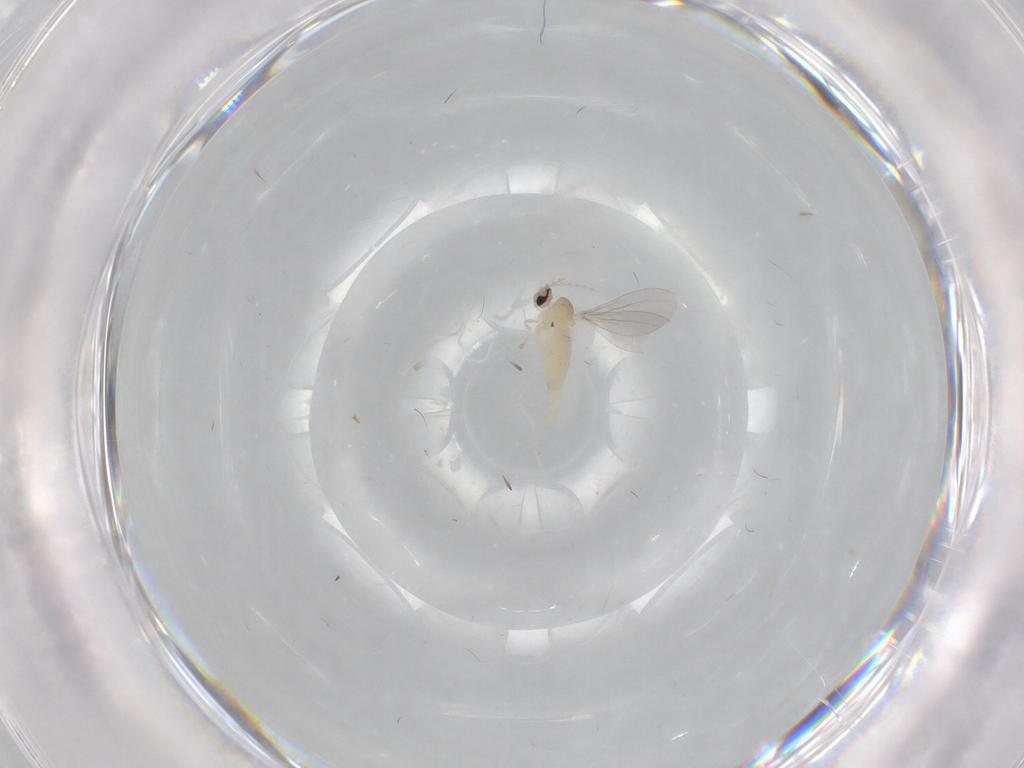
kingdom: Animalia
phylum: Arthropoda
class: Insecta
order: Diptera
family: Cecidomyiidae
